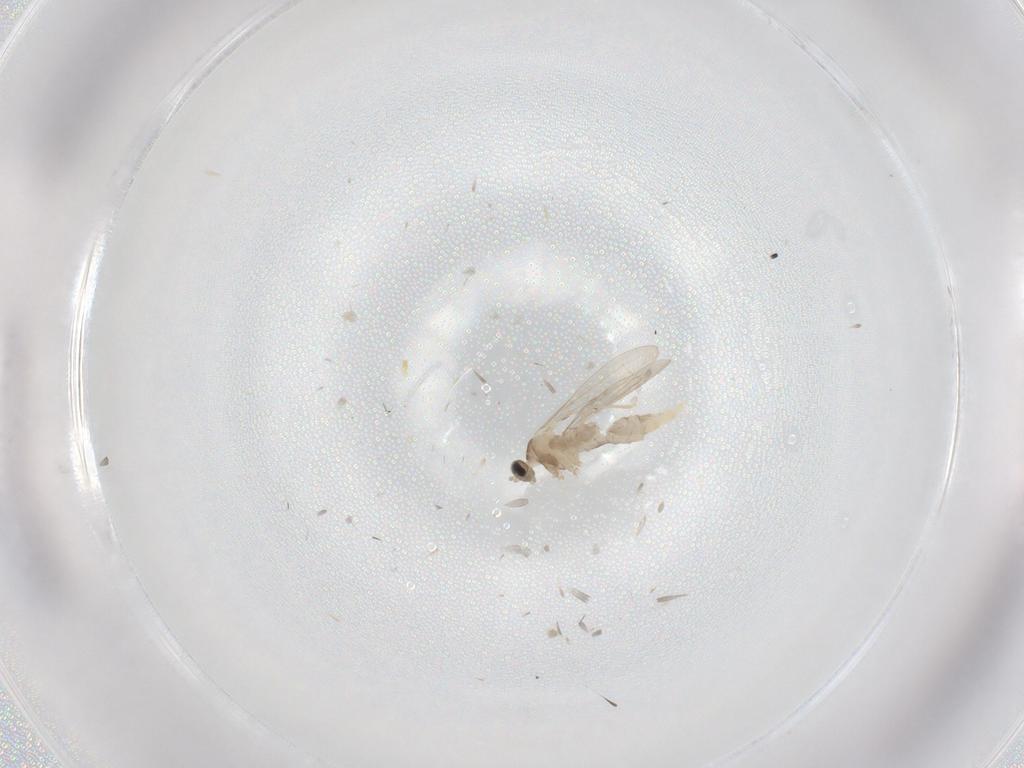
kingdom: Animalia
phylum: Arthropoda
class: Insecta
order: Diptera
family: Cecidomyiidae
